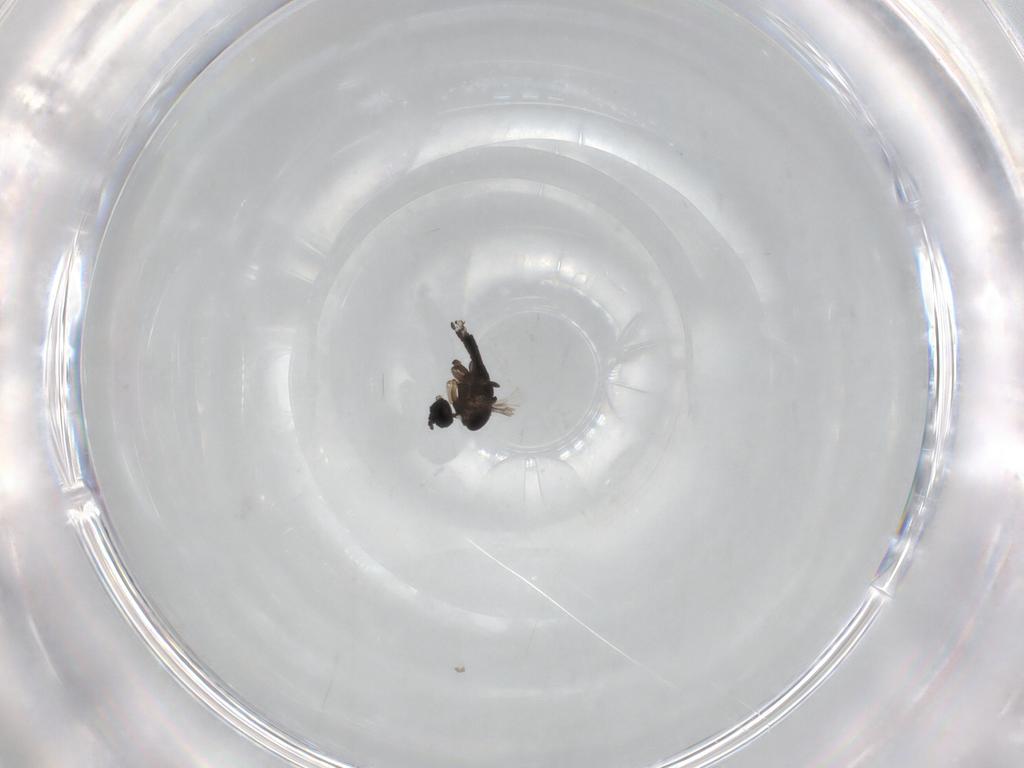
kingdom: Animalia
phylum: Arthropoda
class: Insecta
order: Diptera
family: Sciaridae
